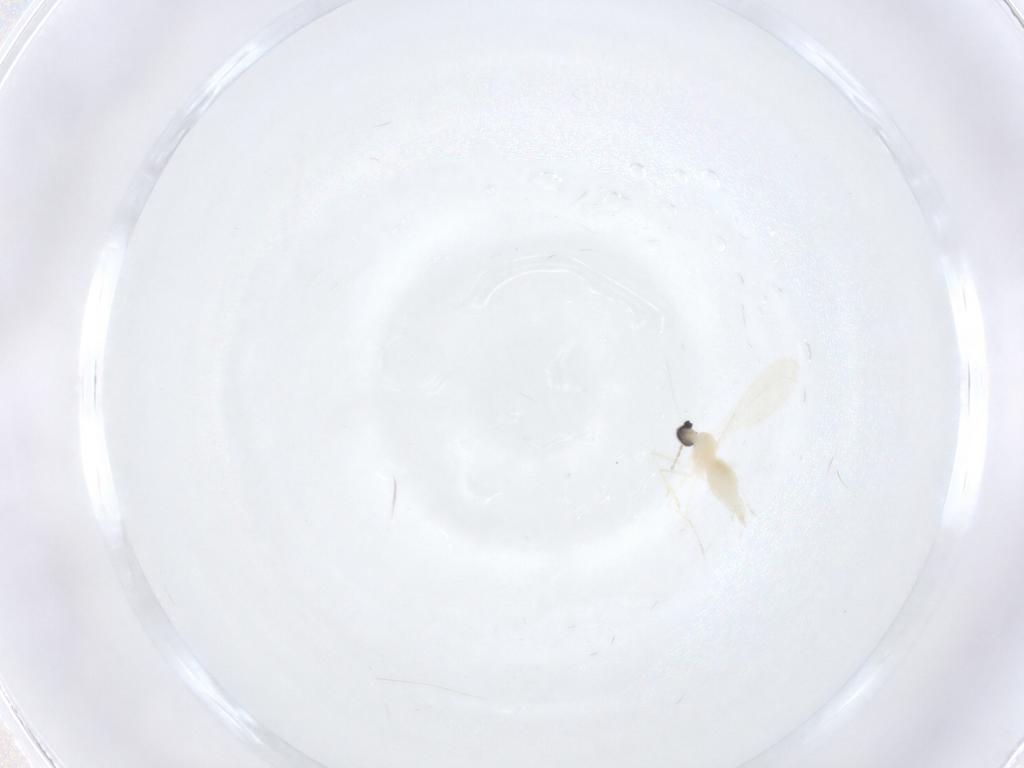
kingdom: Animalia
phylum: Arthropoda
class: Insecta
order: Diptera
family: Cecidomyiidae
